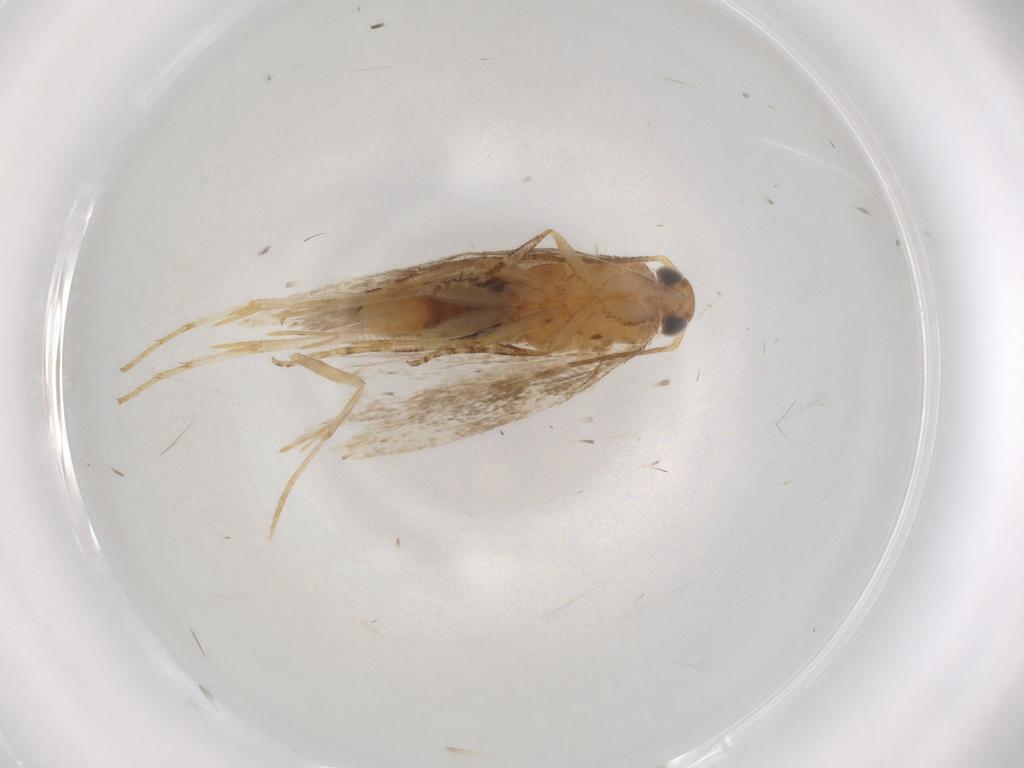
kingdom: Animalia
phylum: Arthropoda
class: Insecta
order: Lepidoptera
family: Gelechiidae
